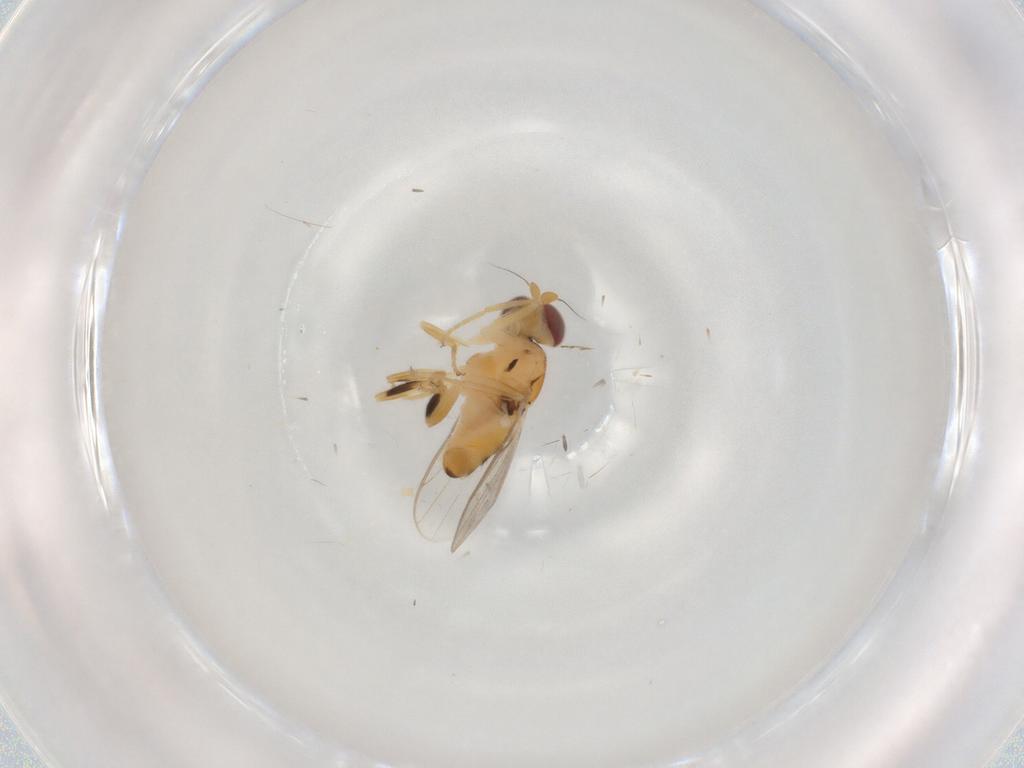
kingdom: Animalia
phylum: Arthropoda
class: Insecta
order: Diptera
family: Chloropidae
